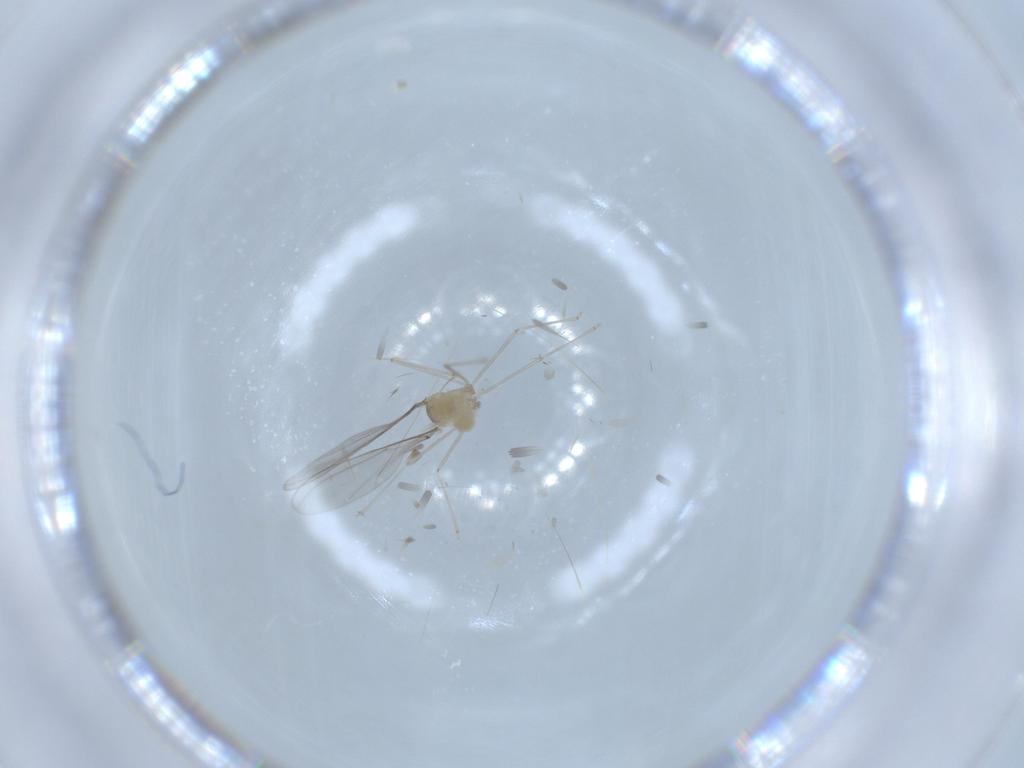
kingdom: Animalia
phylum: Arthropoda
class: Insecta
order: Diptera
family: Cecidomyiidae
